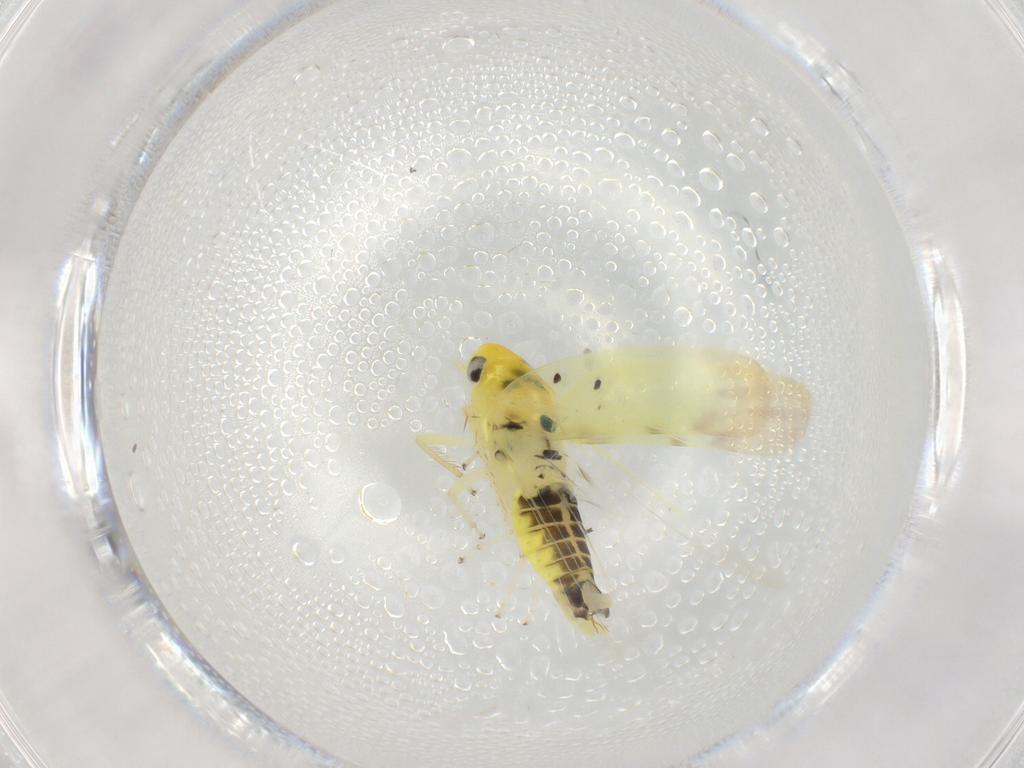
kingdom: Animalia
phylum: Arthropoda
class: Insecta
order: Hemiptera
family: Cicadellidae
